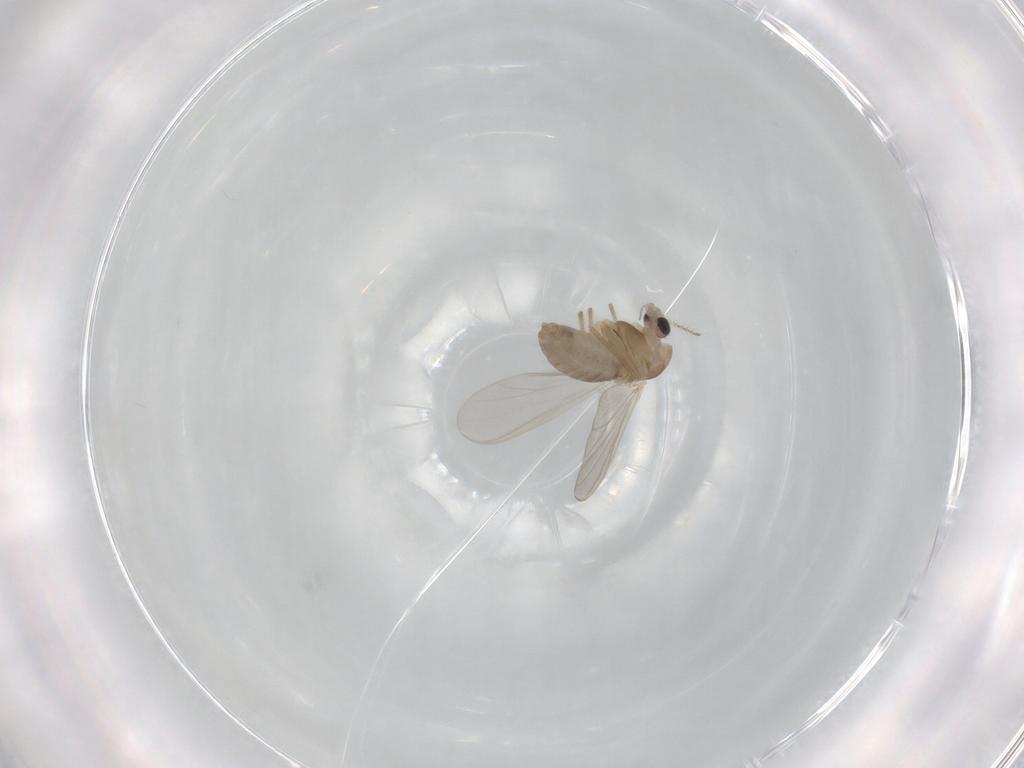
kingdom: Animalia
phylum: Arthropoda
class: Insecta
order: Diptera
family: Chironomidae
